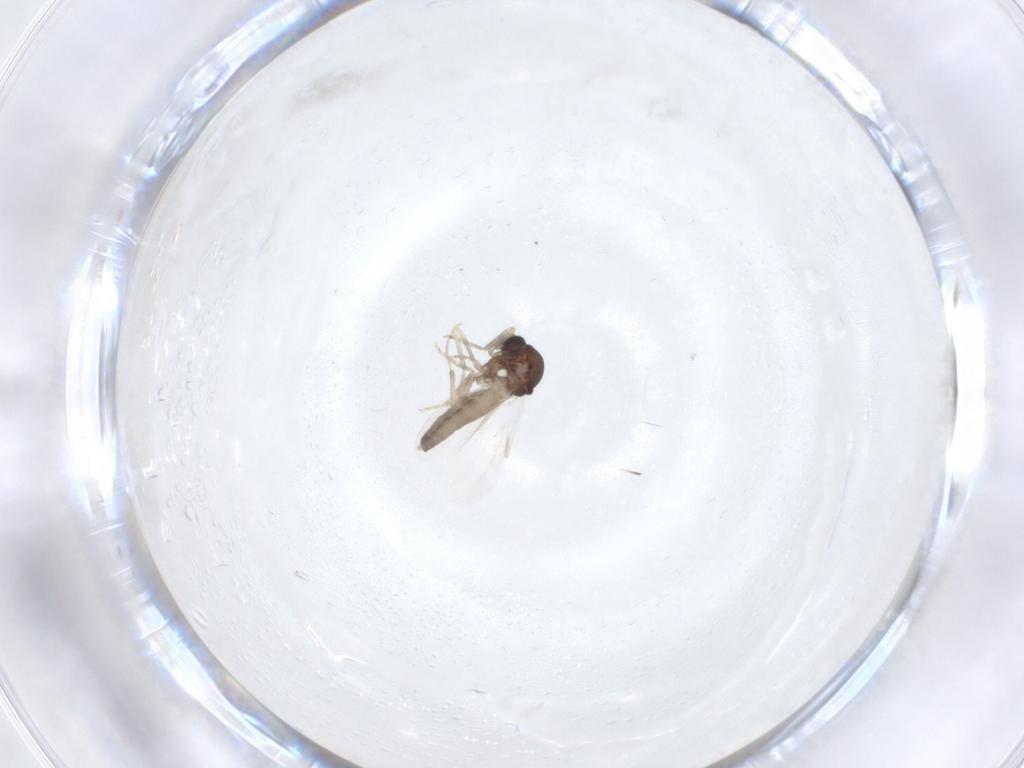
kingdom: Animalia
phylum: Arthropoda
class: Insecta
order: Diptera
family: Ceratopogonidae
